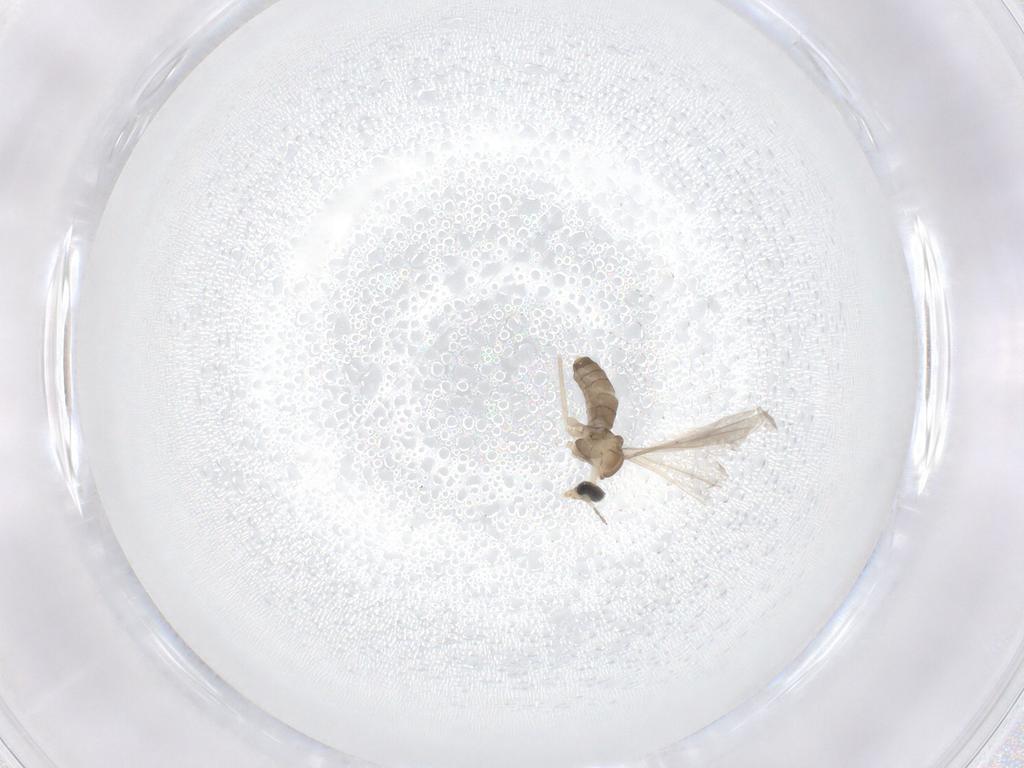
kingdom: Animalia
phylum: Arthropoda
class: Insecta
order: Diptera
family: Cecidomyiidae
